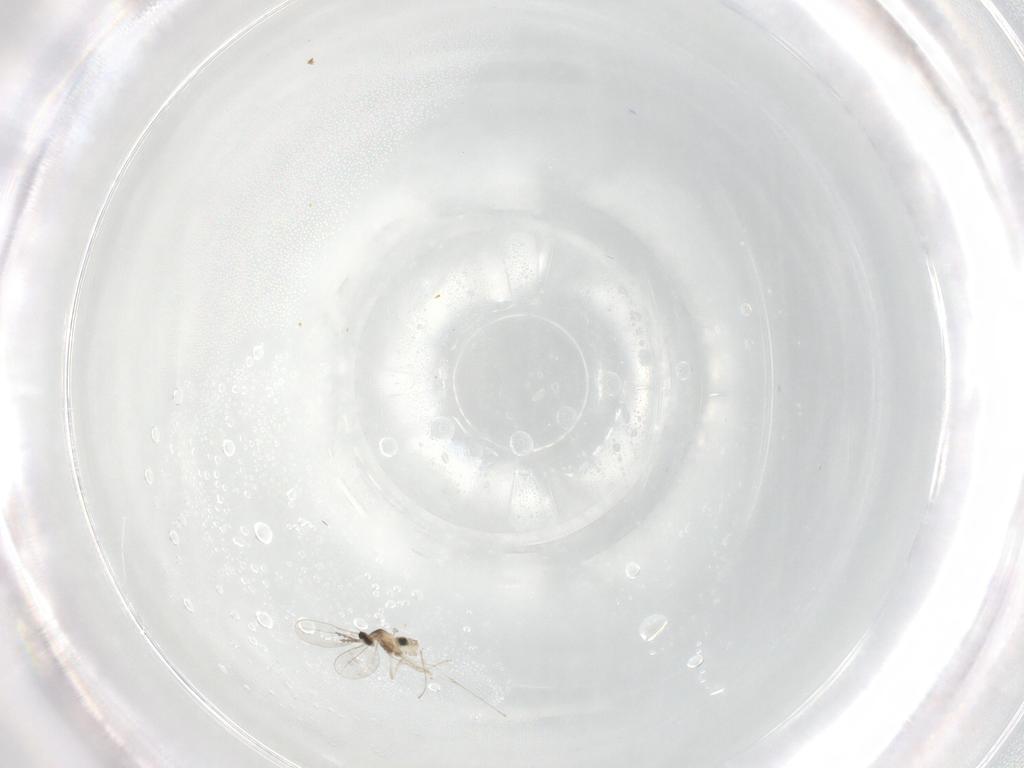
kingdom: Animalia
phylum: Arthropoda
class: Insecta
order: Diptera
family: Cecidomyiidae
